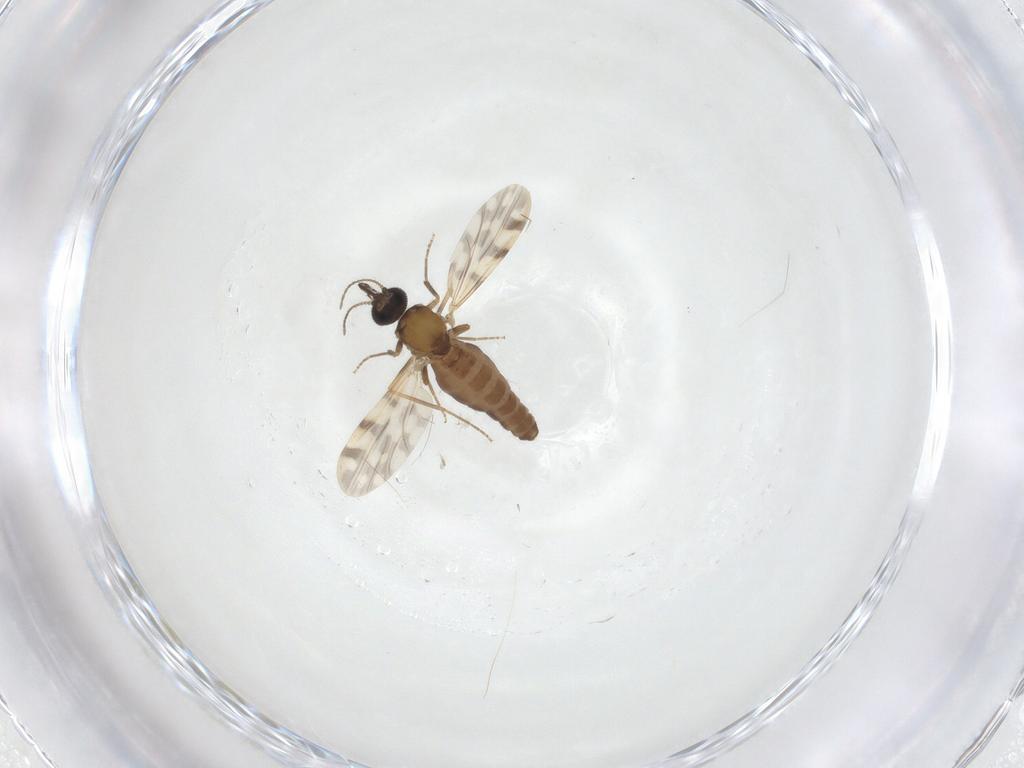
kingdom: Animalia
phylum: Arthropoda
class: Insecta
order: Diptera
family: Ceratopogonidae
